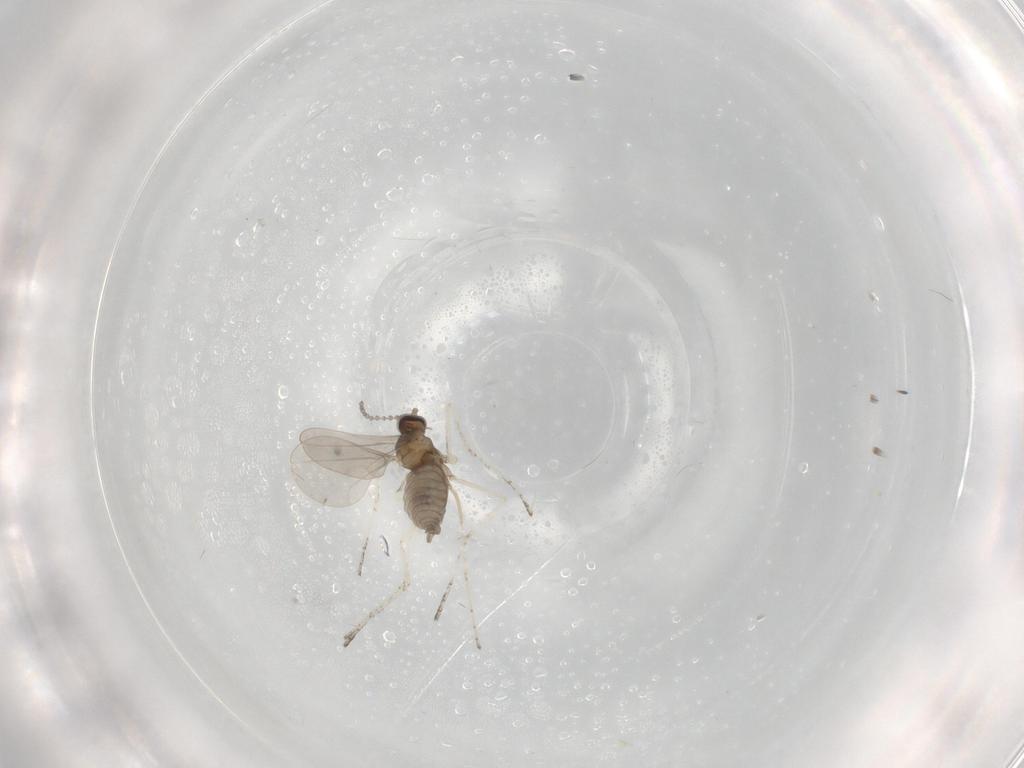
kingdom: Animalia
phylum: Arthropoda
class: Insecta
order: Diptera
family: Cecidomyiidae
